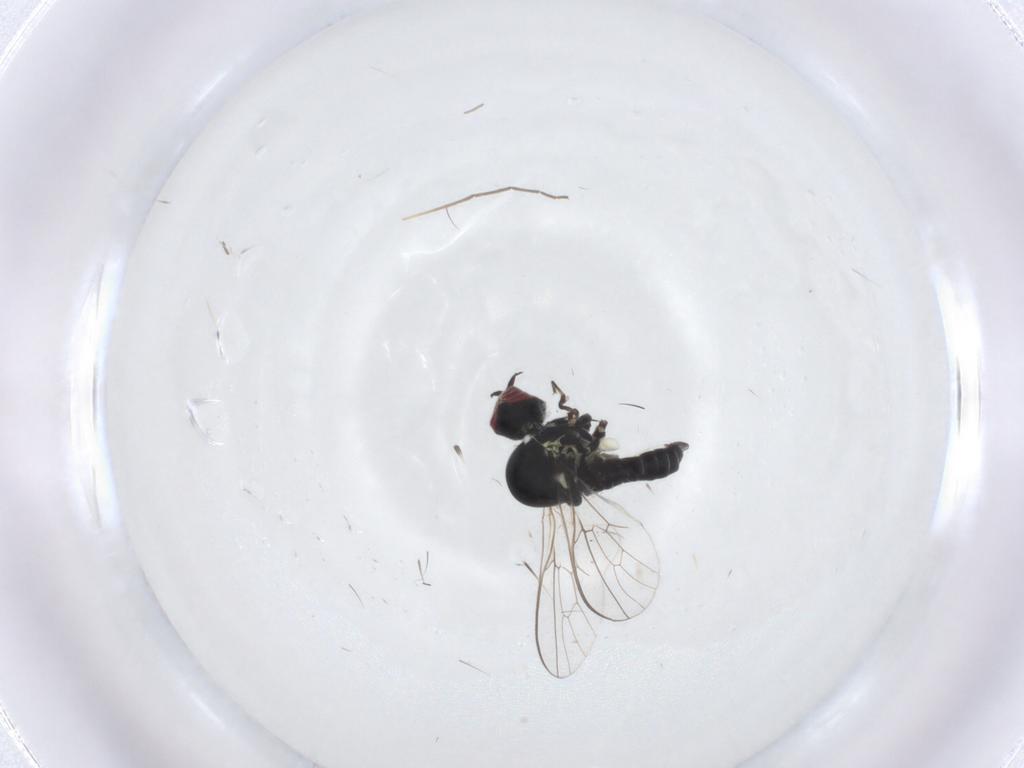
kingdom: Animalia
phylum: Arthropoda
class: Insecta
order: Diptera
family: Bombyliidae
